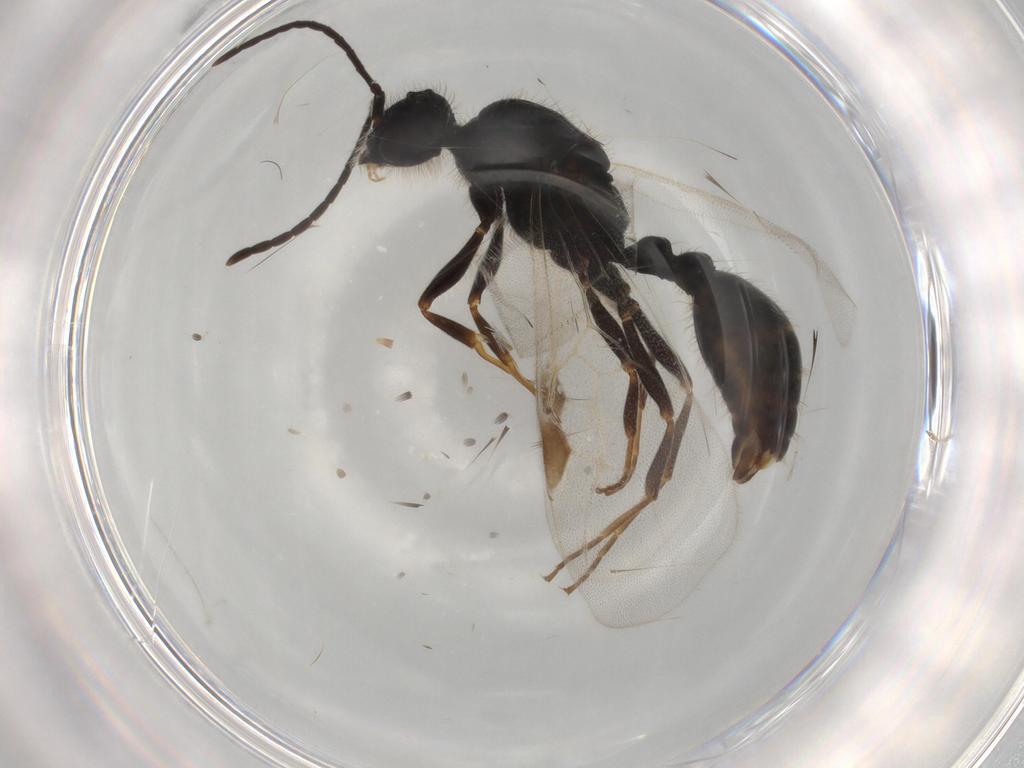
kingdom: Animalia
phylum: Arthropoda
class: Insecta
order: Hymenoptera
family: Formicidae
